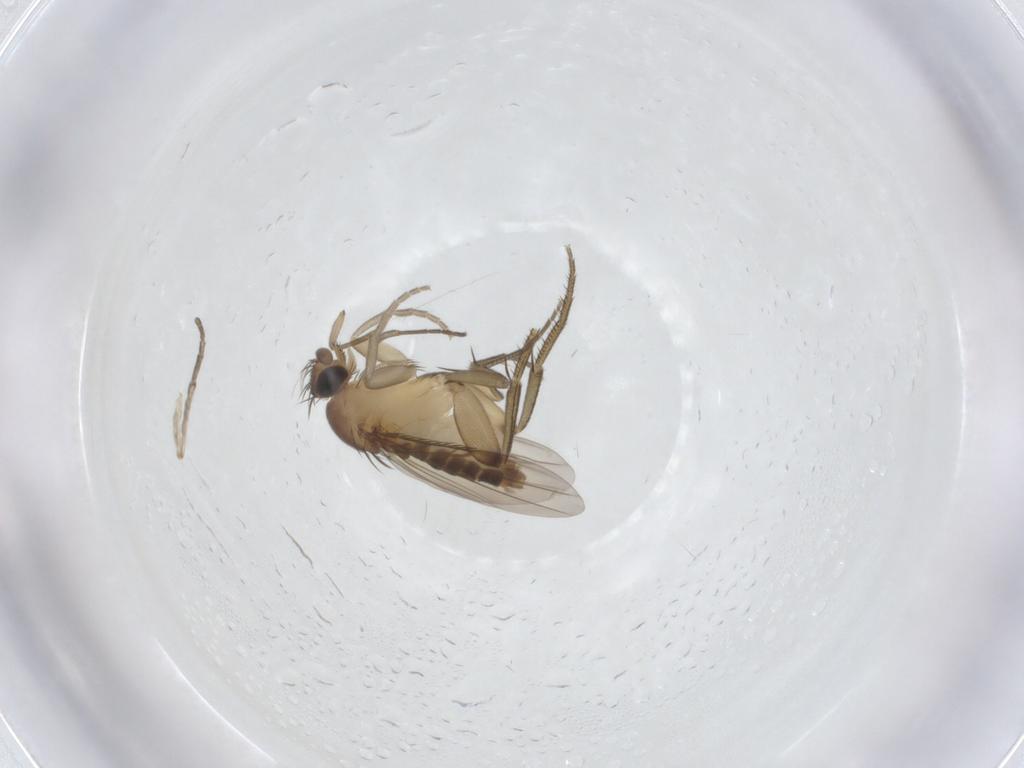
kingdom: Animalia
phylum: Arthropoda
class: Insecta
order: Diptera
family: Phoridae
